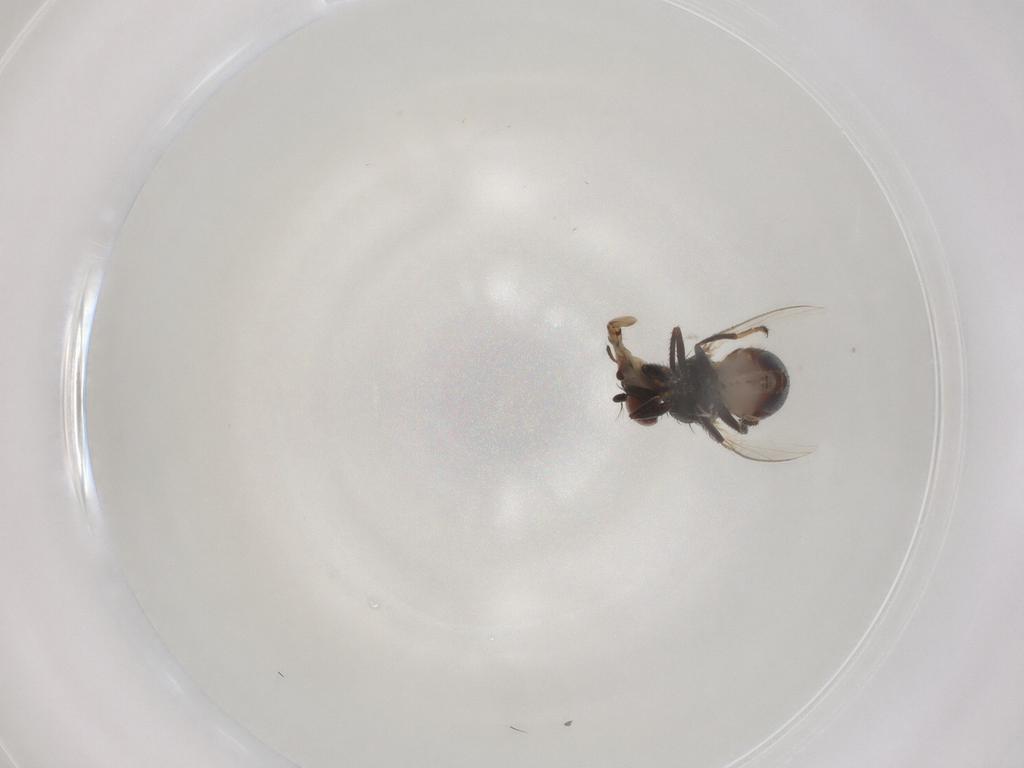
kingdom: Animalia
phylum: Arthropoda
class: Insecta
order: Diptera
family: Ephydridae
